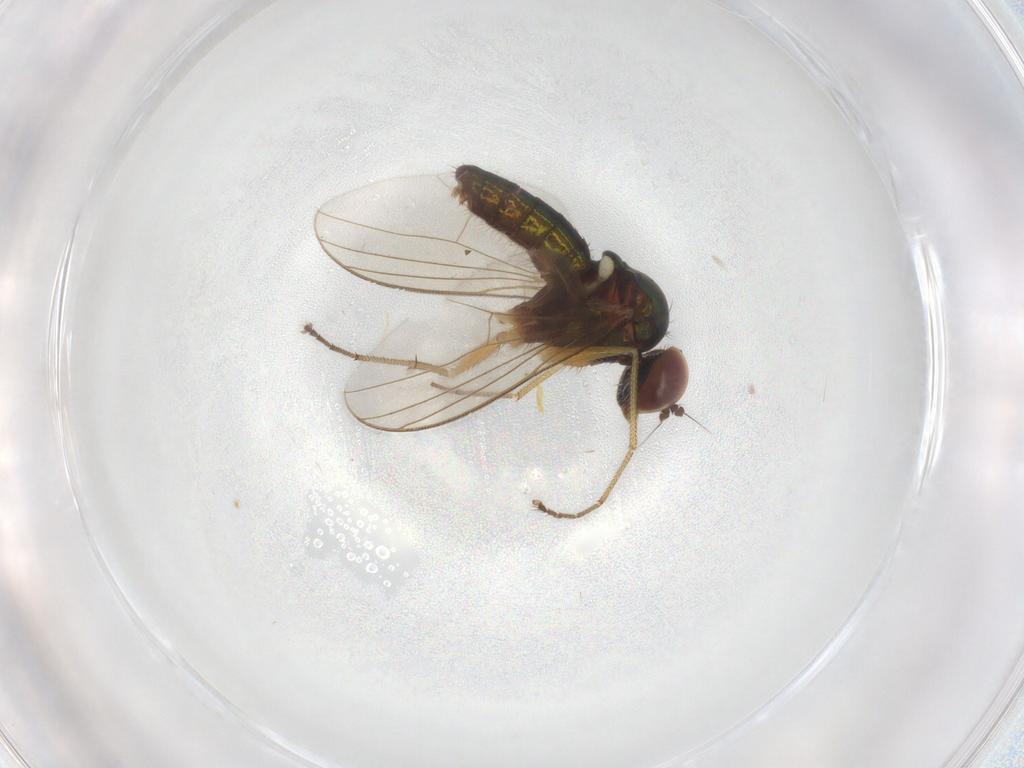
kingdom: Animalia
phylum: Arthropoda
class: Insecta
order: Diptera
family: Dolichopodidae
